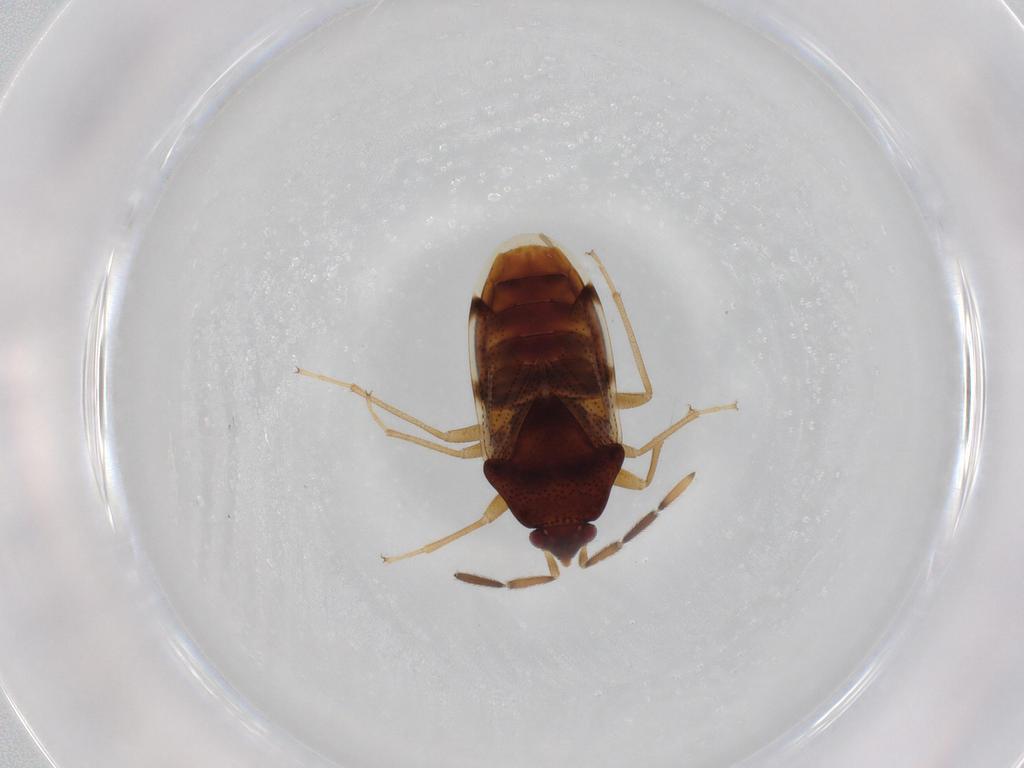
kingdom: Animalia
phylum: Arthropoda
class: Insecta
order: Hemiptera
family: Rhyparochromidae
